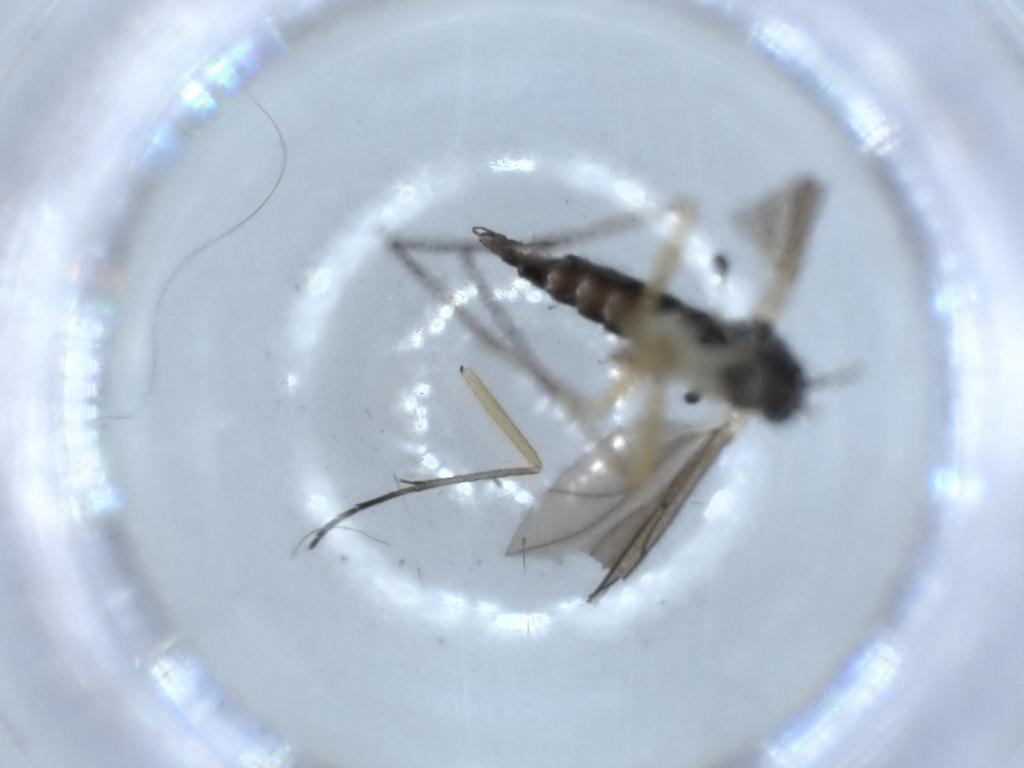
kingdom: Animalia
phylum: Arthropoda
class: Insecta
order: Diptera
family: Sciaridae
